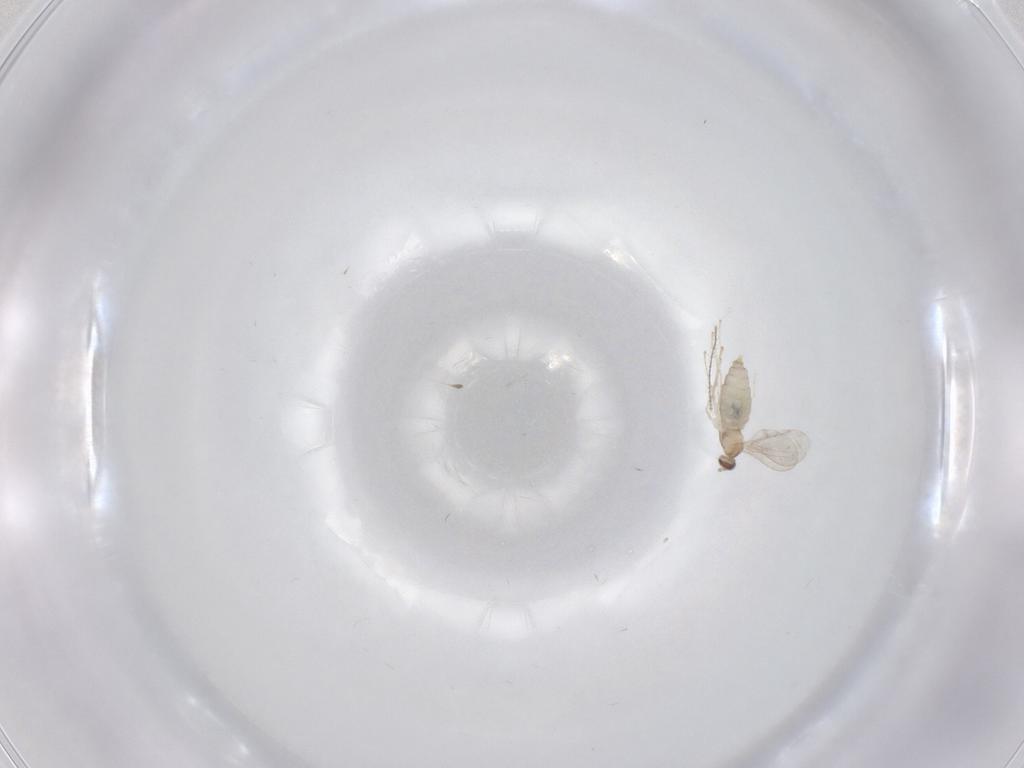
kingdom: Animalia
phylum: Arthropoda
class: Insecta
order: Diptera
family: Cecidomyiidae
